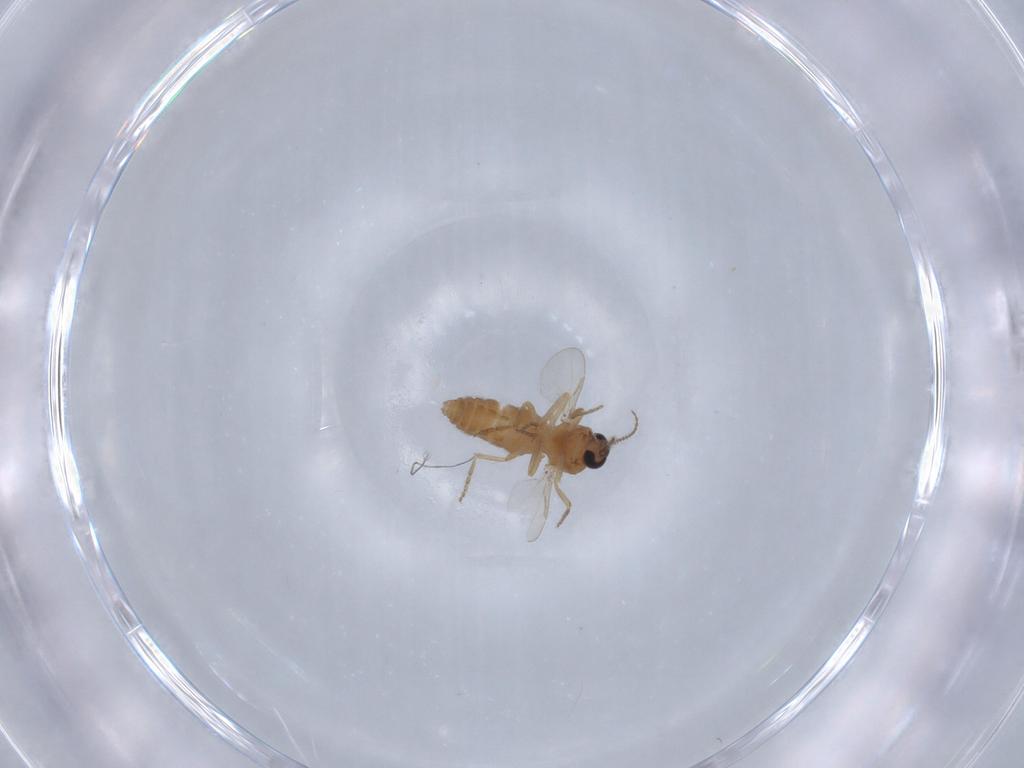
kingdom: Animalia
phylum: Arthropoda
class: Insecta
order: Diptera
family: Ceratopogonidae
